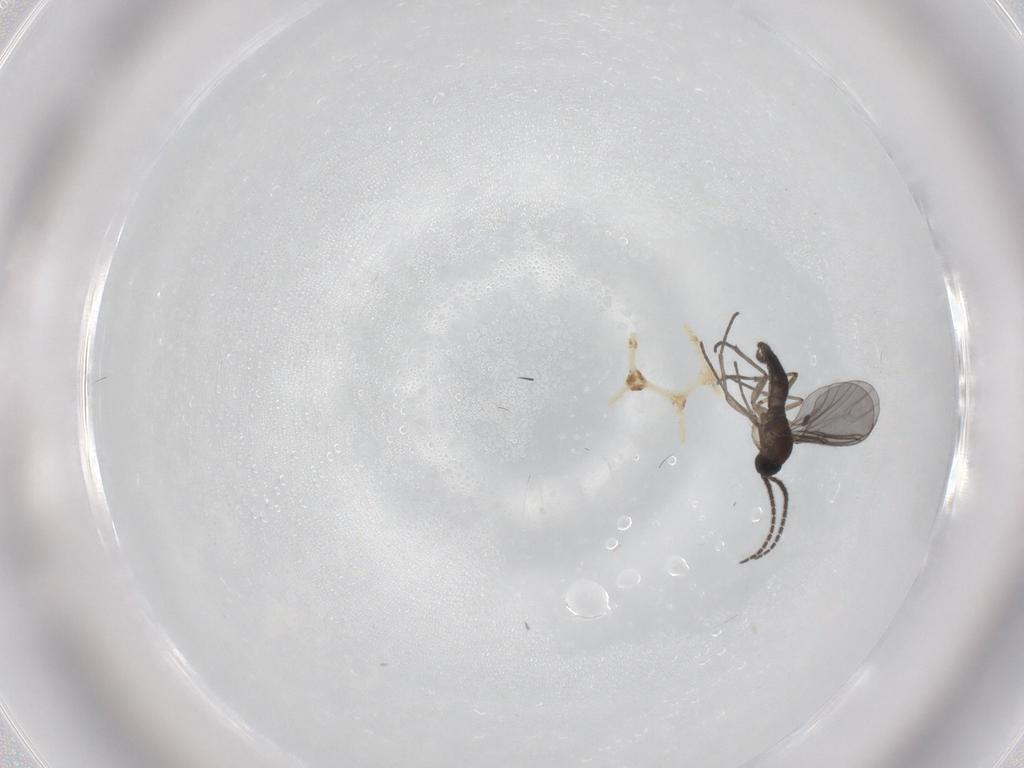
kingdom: Animalia
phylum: Arthropoda
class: Insecta
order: Diptera
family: Sciaridae
